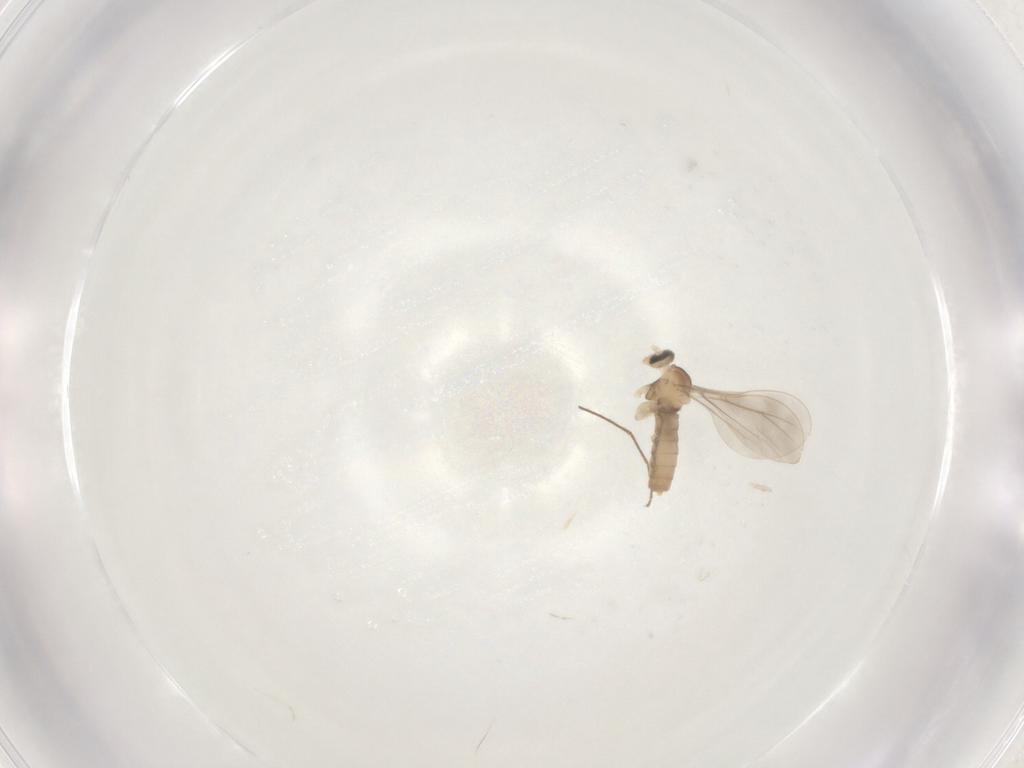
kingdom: Animalia
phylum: Arthropoda
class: Insecta
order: Diptera
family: Cecidomyiidae
